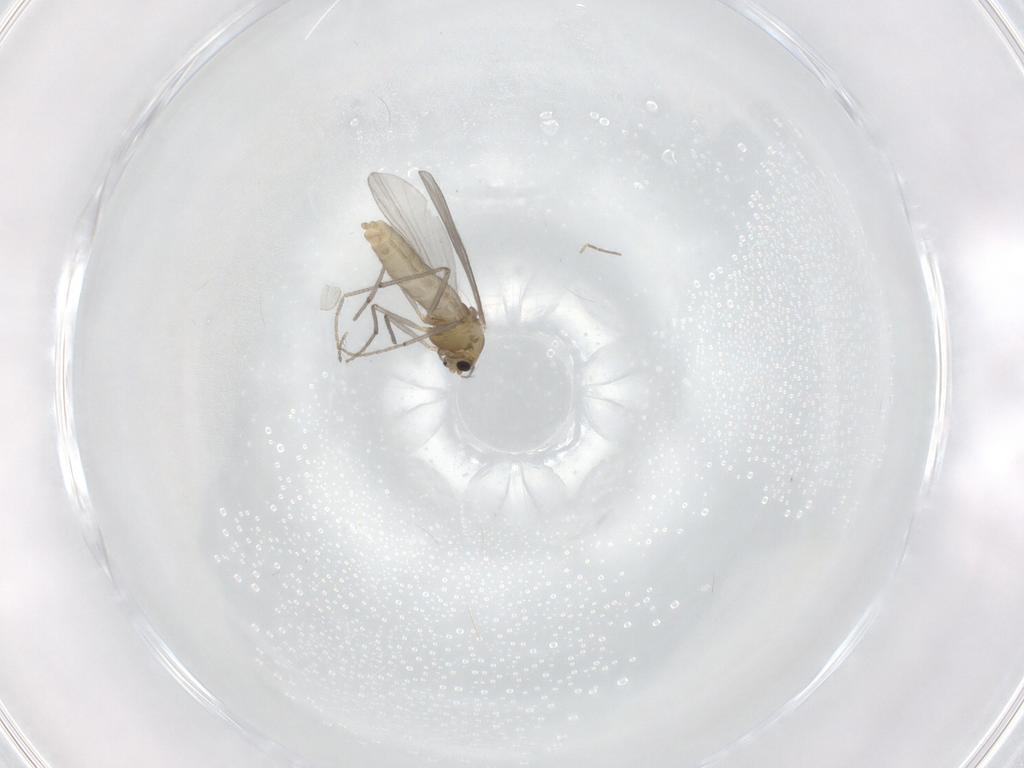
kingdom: Animalia
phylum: Arthropoda
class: Insecta
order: Diptera
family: Chironomidae
